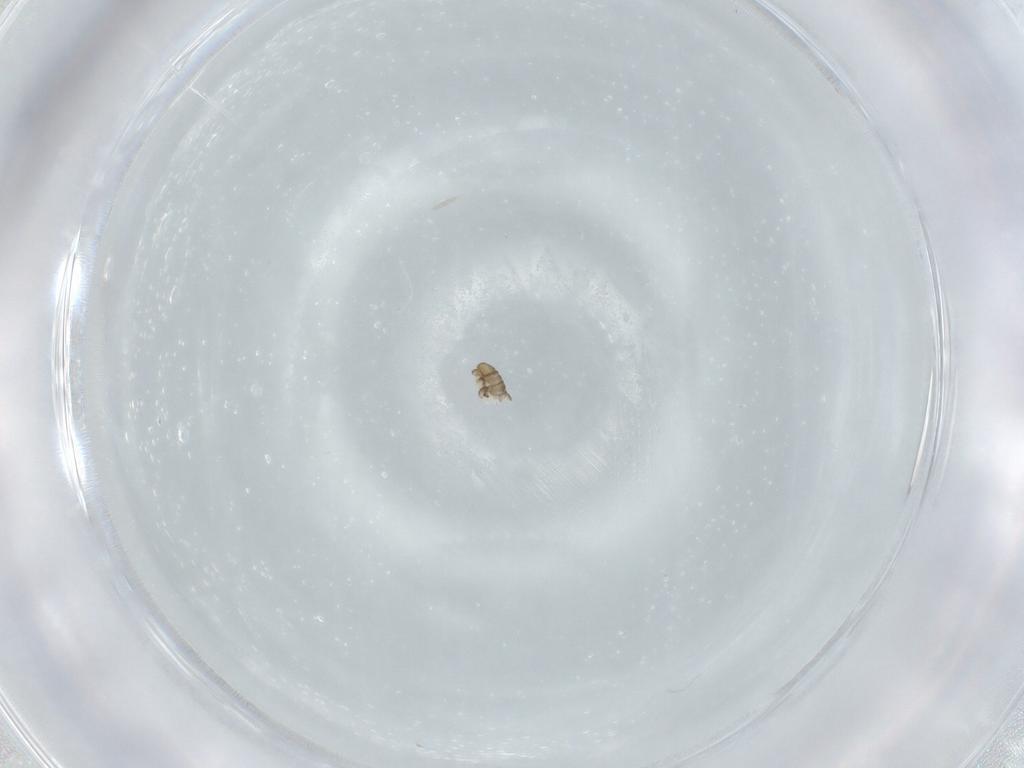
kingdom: Animalia
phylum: Arthropoda
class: Insecta
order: Diptera
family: Cecidomyiidae
